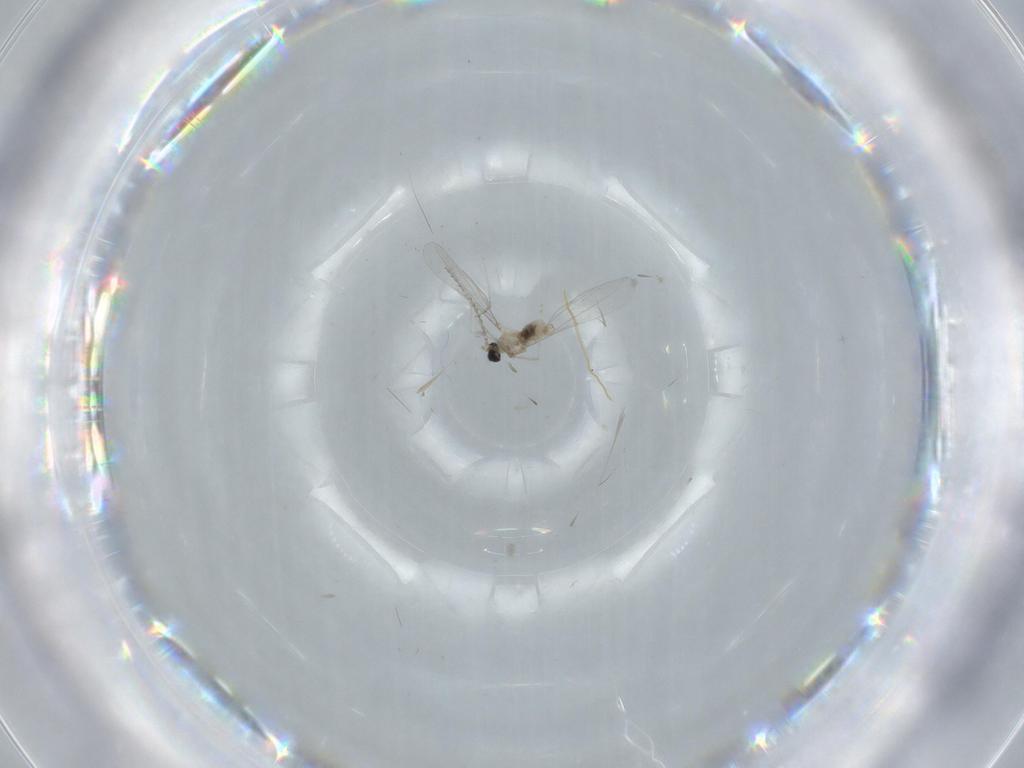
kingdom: Animalia
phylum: Arthropoda
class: Insecta
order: Diptera
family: Cecidomyiidae
